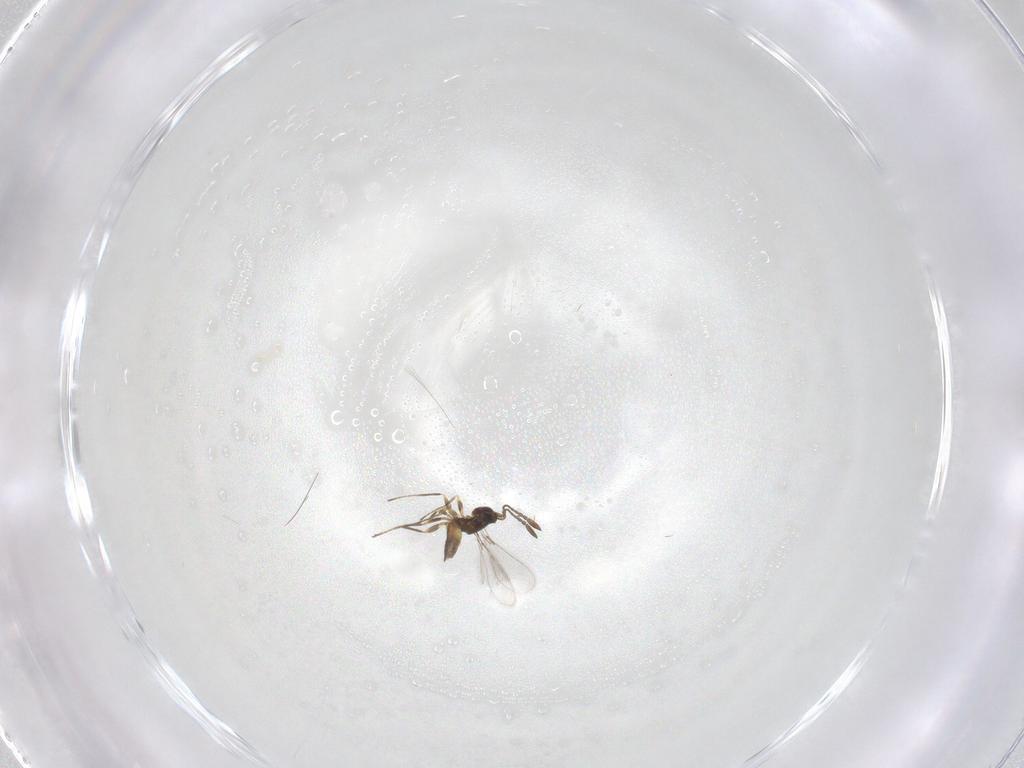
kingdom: Animalia
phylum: Arthropoda
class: Insecta
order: Hymenoptera
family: Mymaridae
